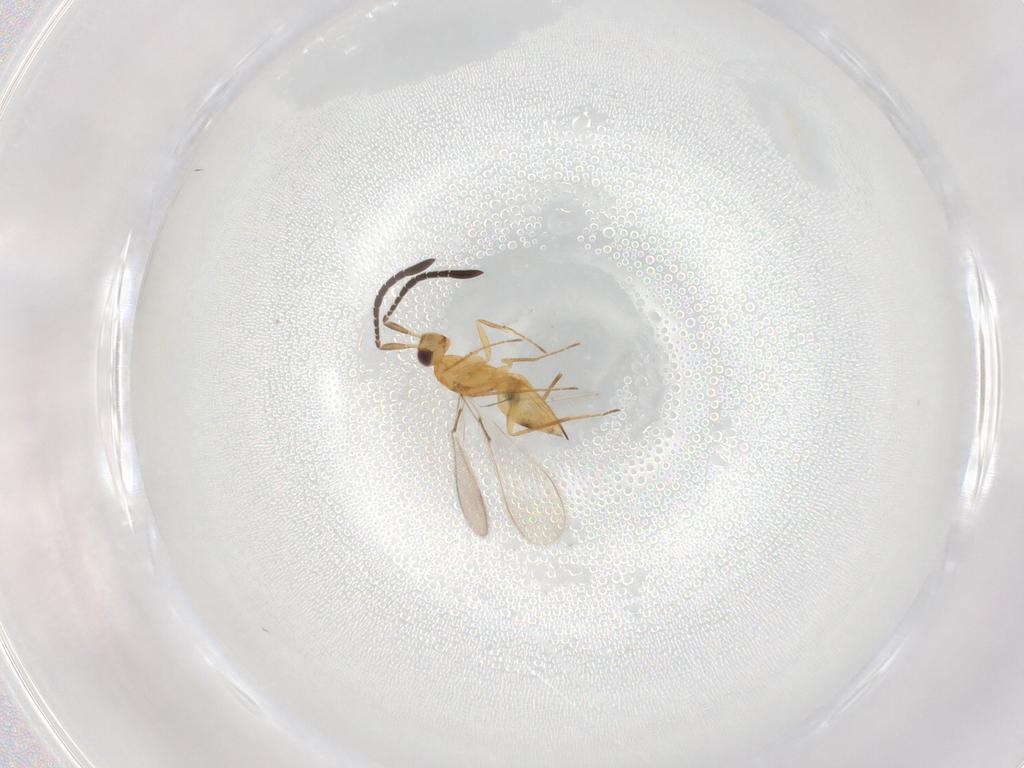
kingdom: Animalia
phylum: Arthropoda
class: Insecta
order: Hymenoptera
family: Mymaridae
